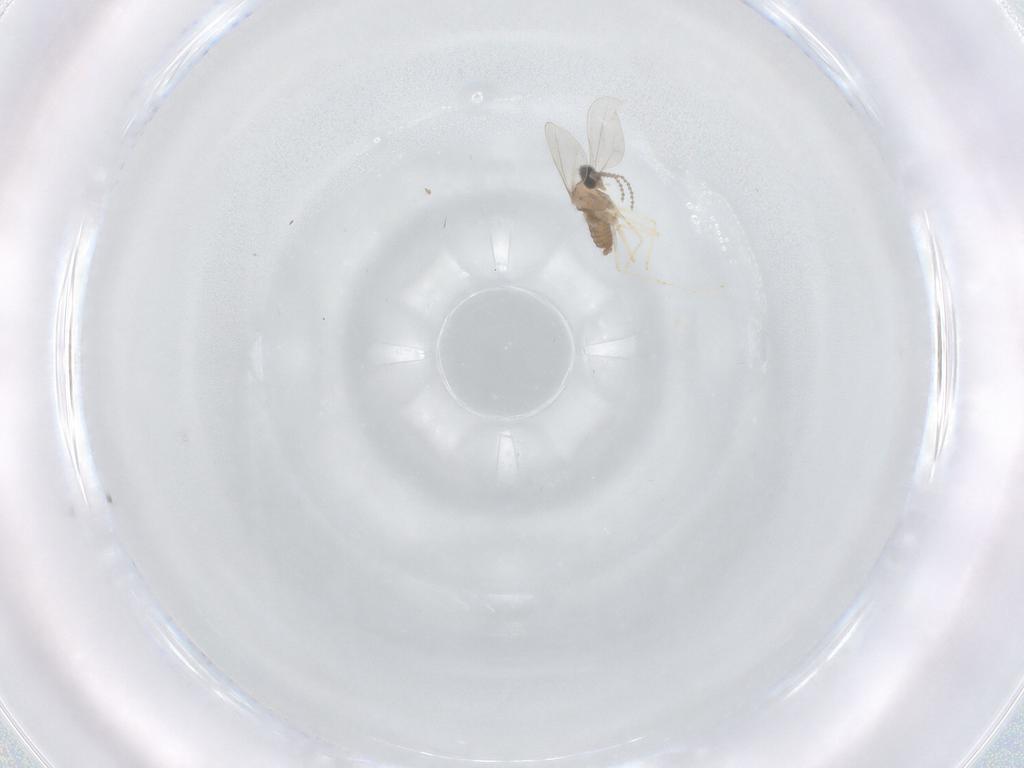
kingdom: Animalia
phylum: Arthropoda
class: Insecta
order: Diptera
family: Cecidomyiidae
